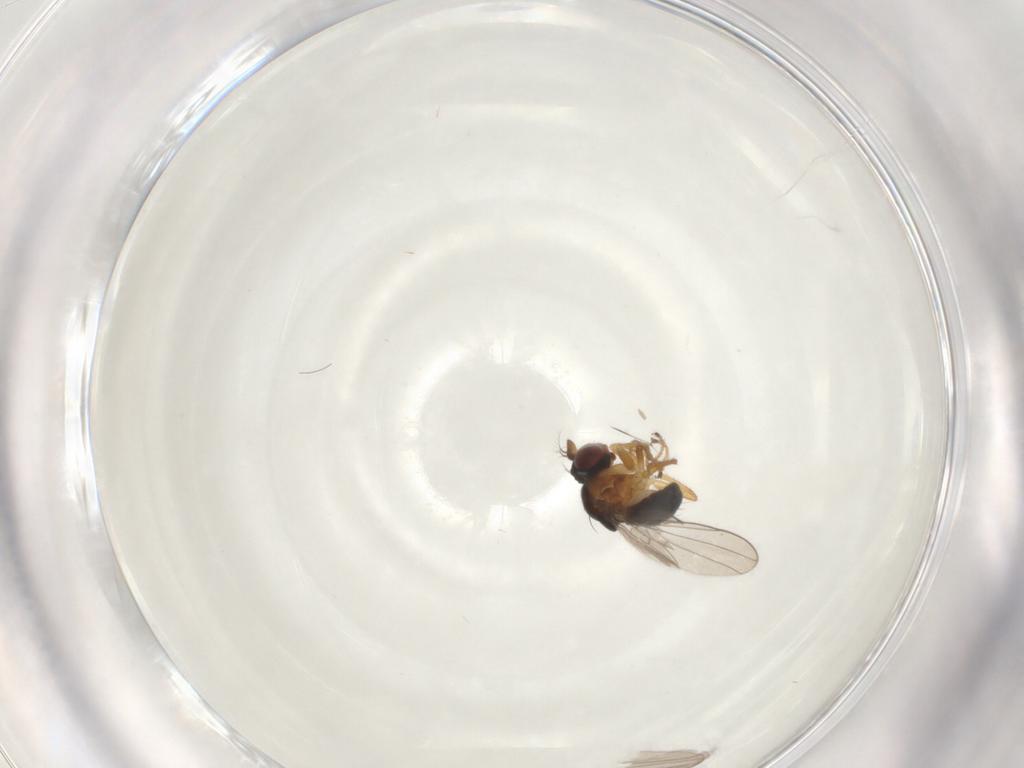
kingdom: Animalia
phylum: Arthropoda
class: Insecta
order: Diptera
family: Ephydridae
